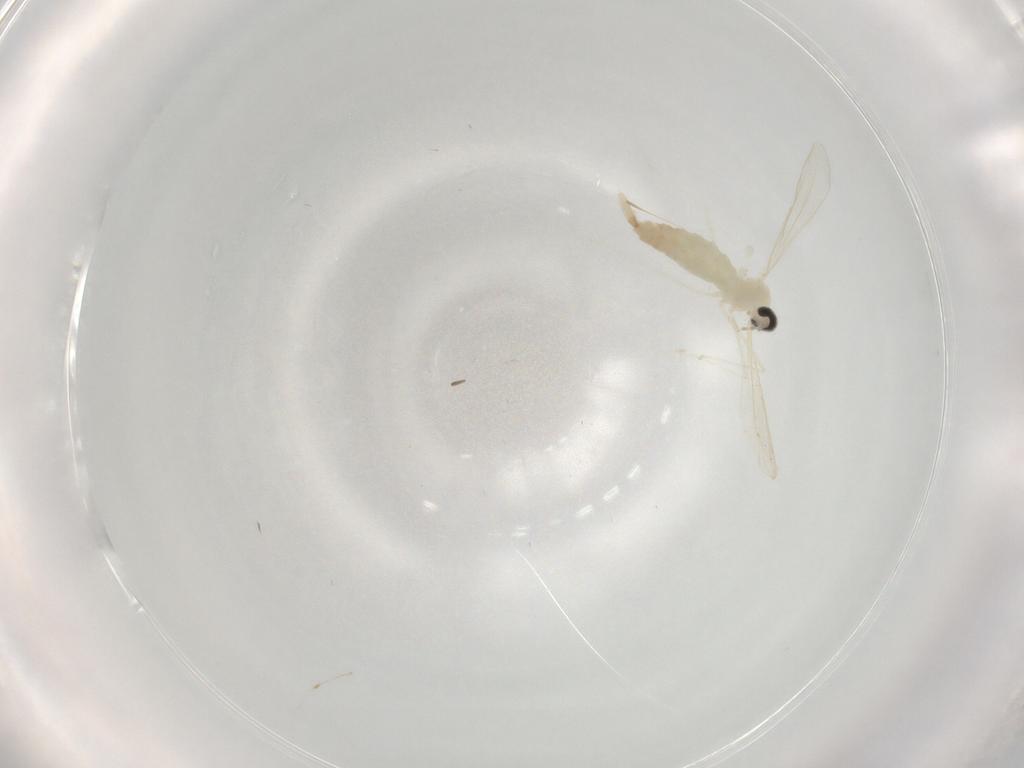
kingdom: Animalia
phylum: Arthropoda
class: Insecta
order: Diptera
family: Cecidomyiidae
